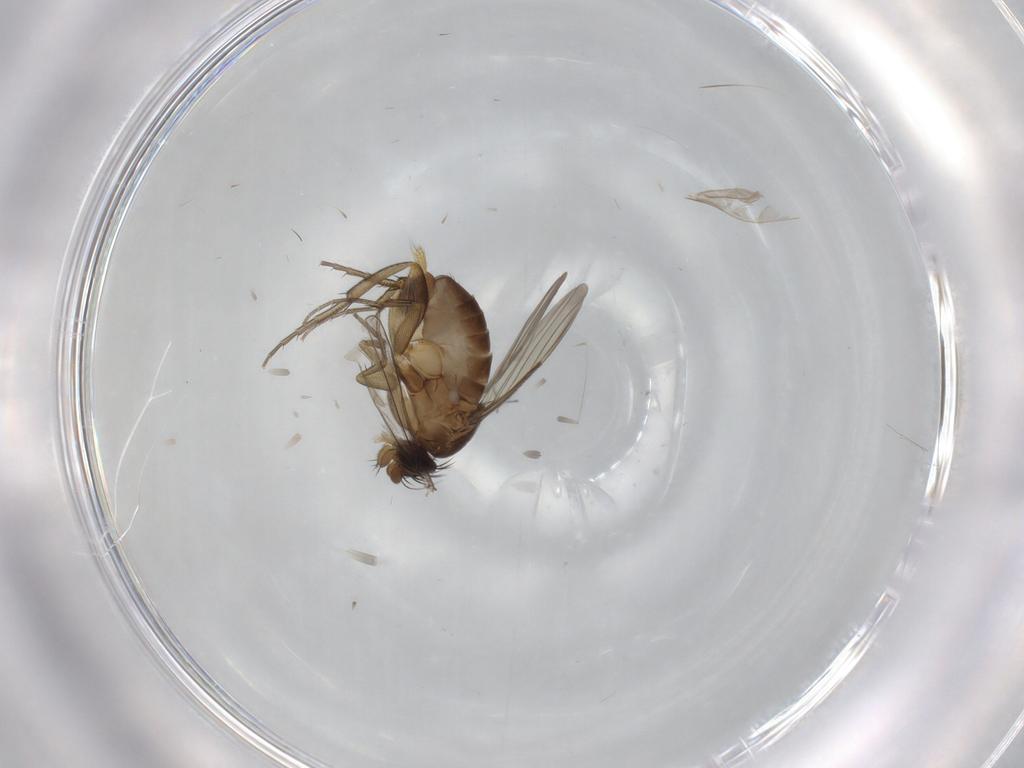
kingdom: Animalia
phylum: Arthropoda
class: Insecta
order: Diptera
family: Phoridae
